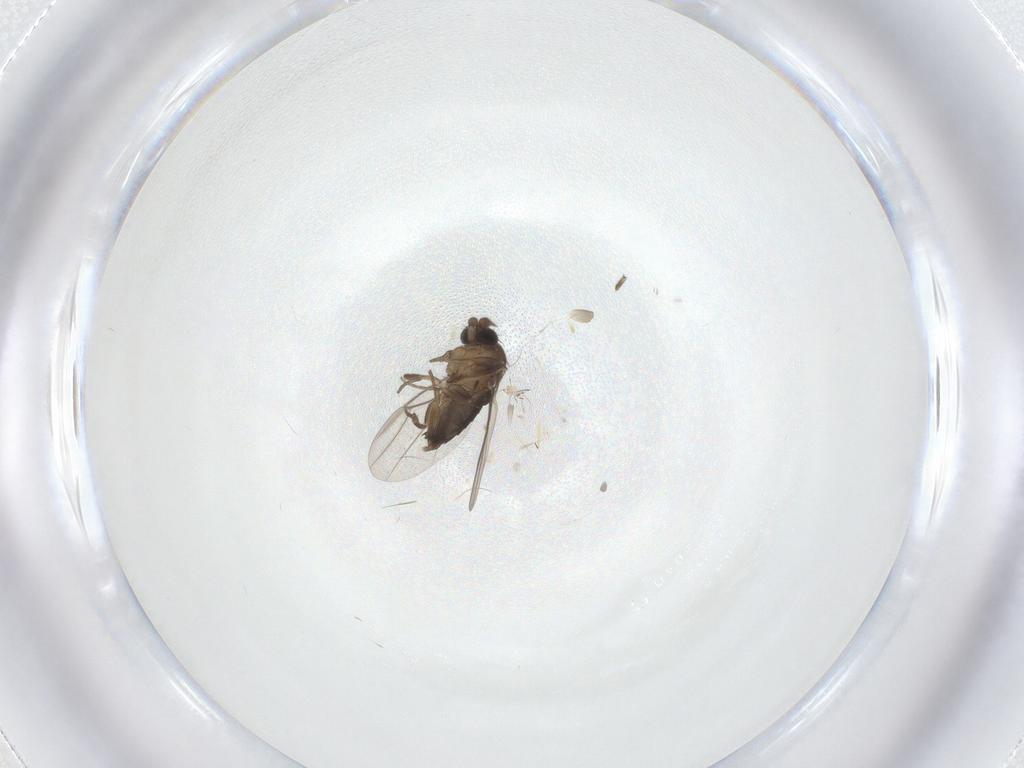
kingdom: Animalia
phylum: Arthropoda
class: Insecta
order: Diptera
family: Phoridae
